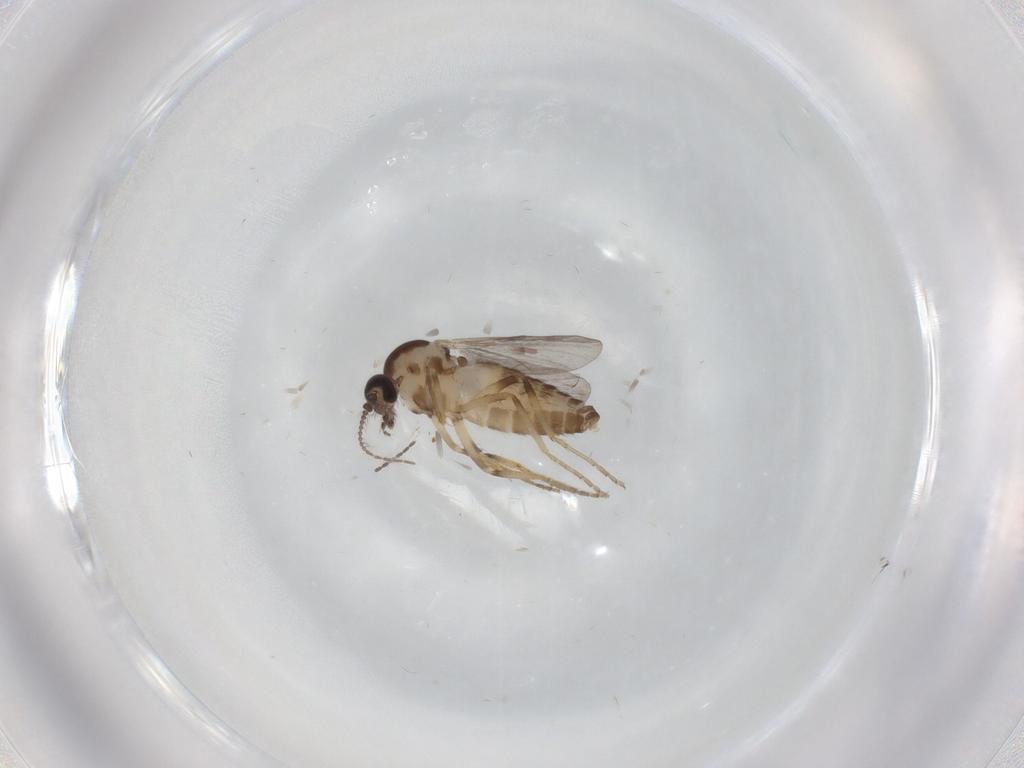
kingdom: Animalia
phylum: Arthropoda
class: Insecta
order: Diptera
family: Ceratopogonidae
